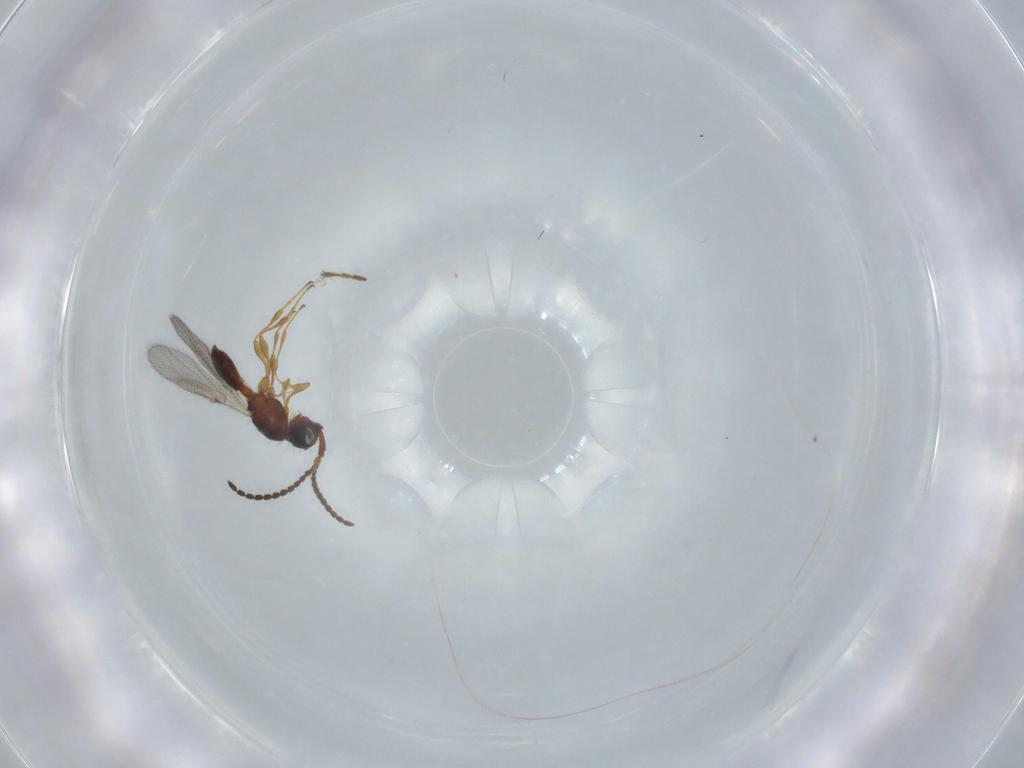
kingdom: Animalia
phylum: Arthropoda
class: Insecta
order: Hymenoptera
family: Diapriidae
